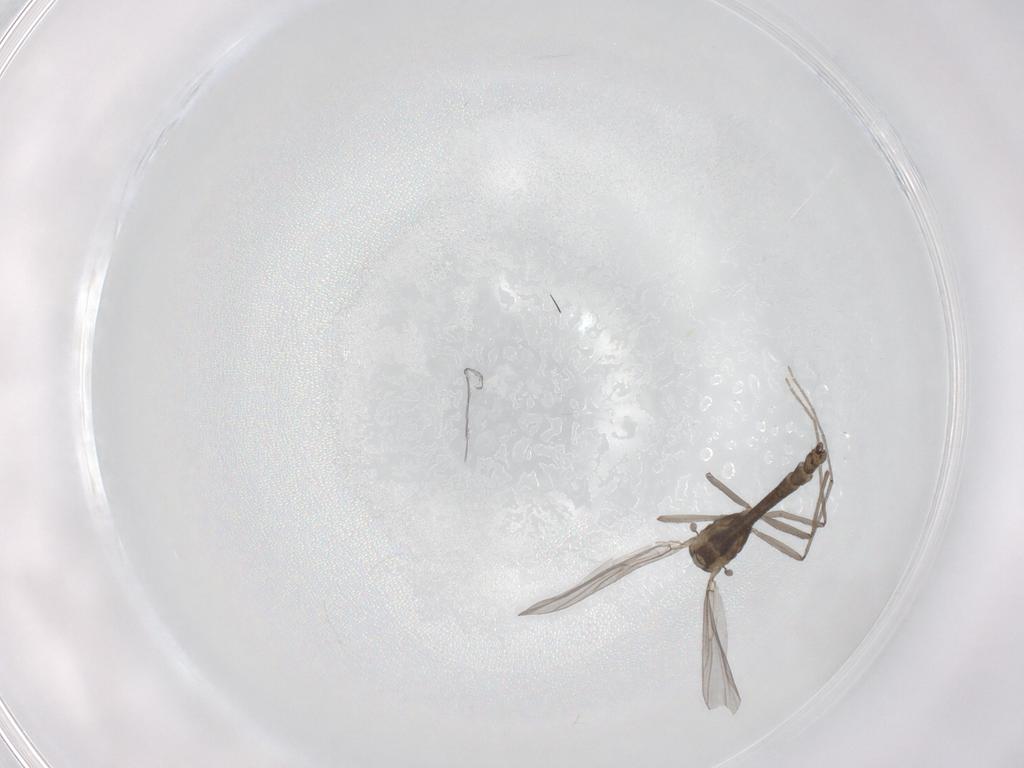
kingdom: Animalia
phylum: Arthropoda
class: Insecta
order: Diptera
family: Chironomidae
